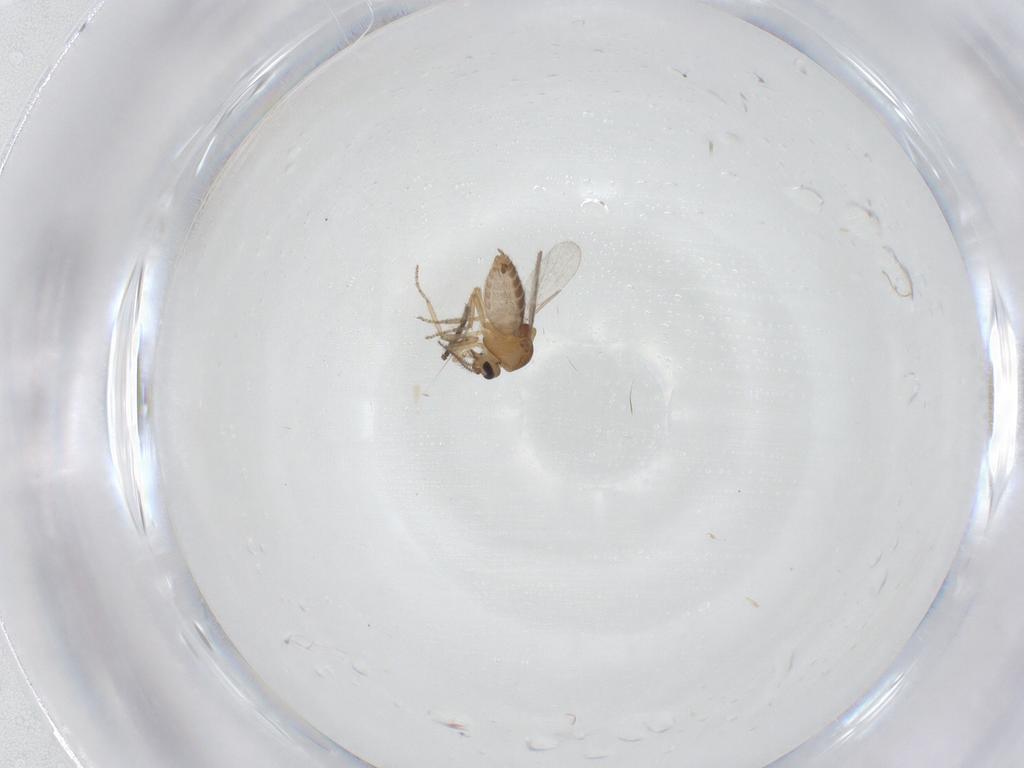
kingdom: Animalia
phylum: Arthropoda
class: Insecta
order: Diptera
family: Ceratopogonidae
